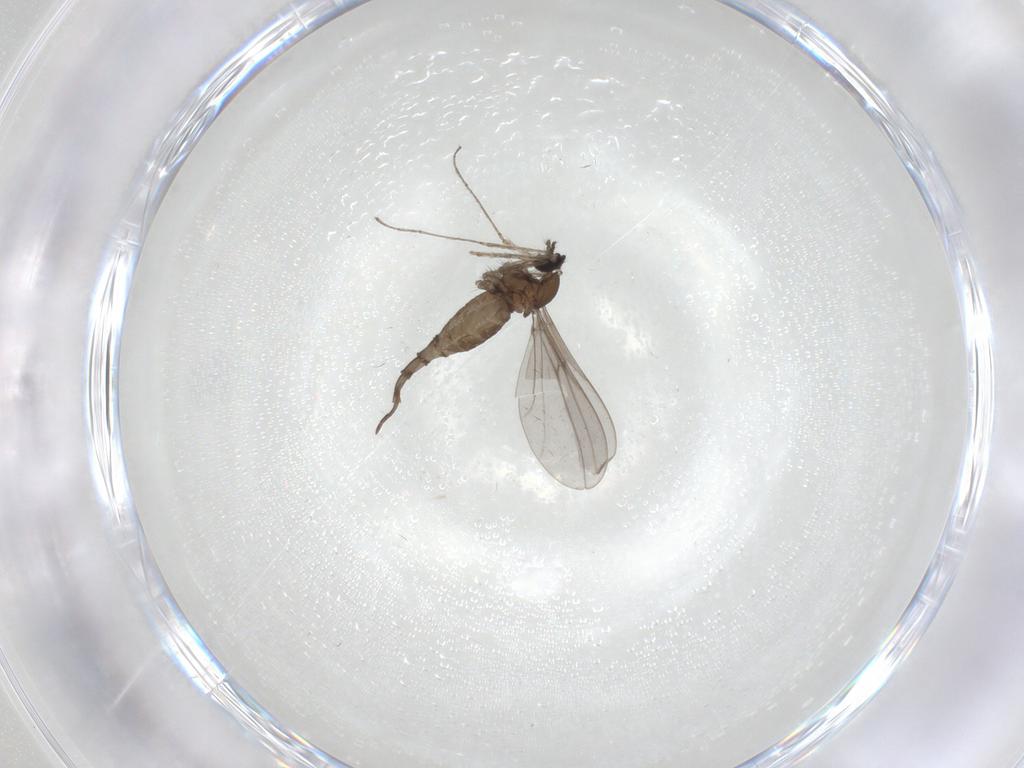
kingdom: Animalia
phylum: Arthropoda
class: Insecta
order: Diptera
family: Cecidomyiidae
